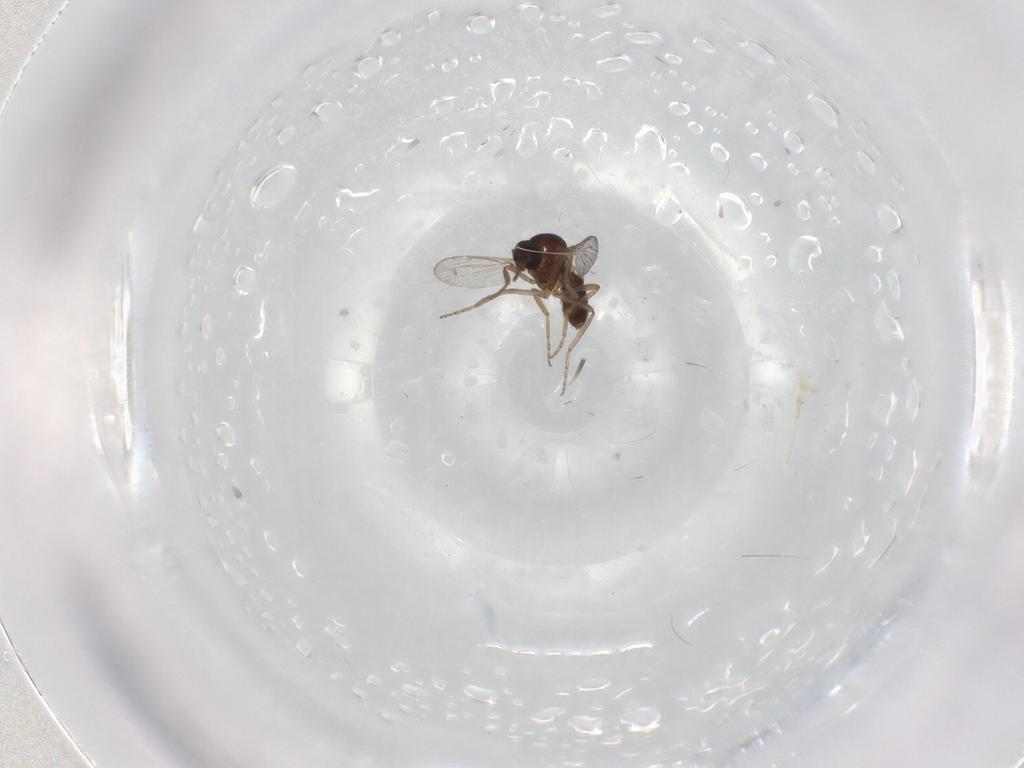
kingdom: Animalia
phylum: Arthropoda
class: Insecta
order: Diptera
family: Ceratopogonidae
